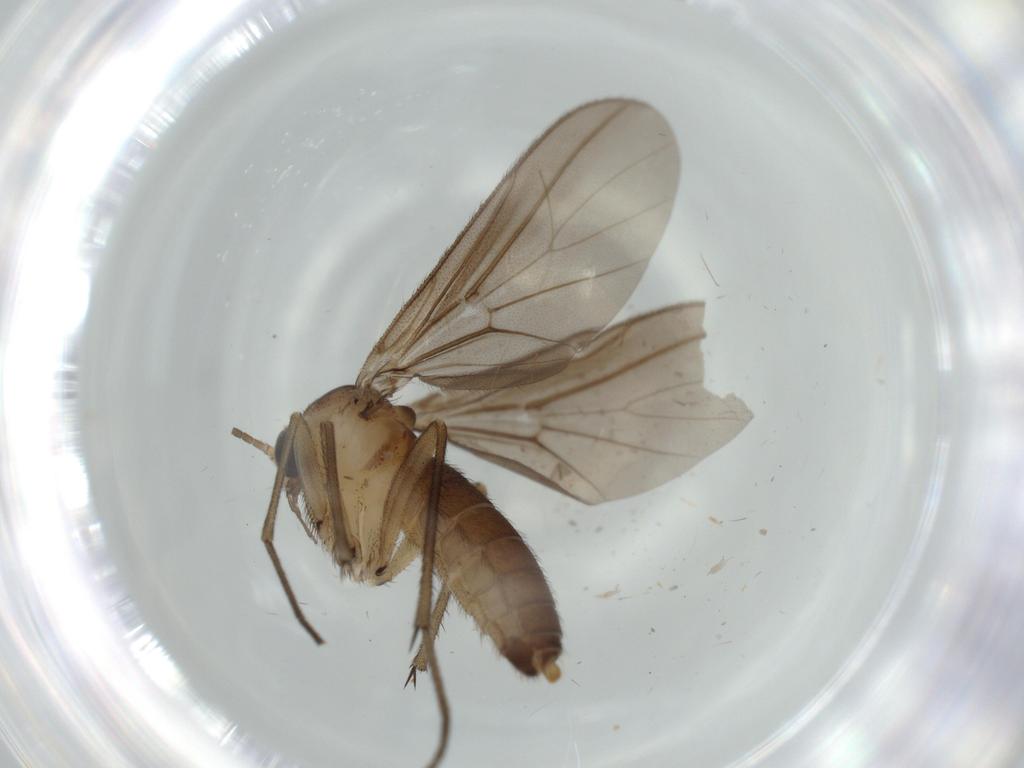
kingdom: Animalia
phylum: Arthropoda
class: Insecta
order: Diptera
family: Diadocidiidae
